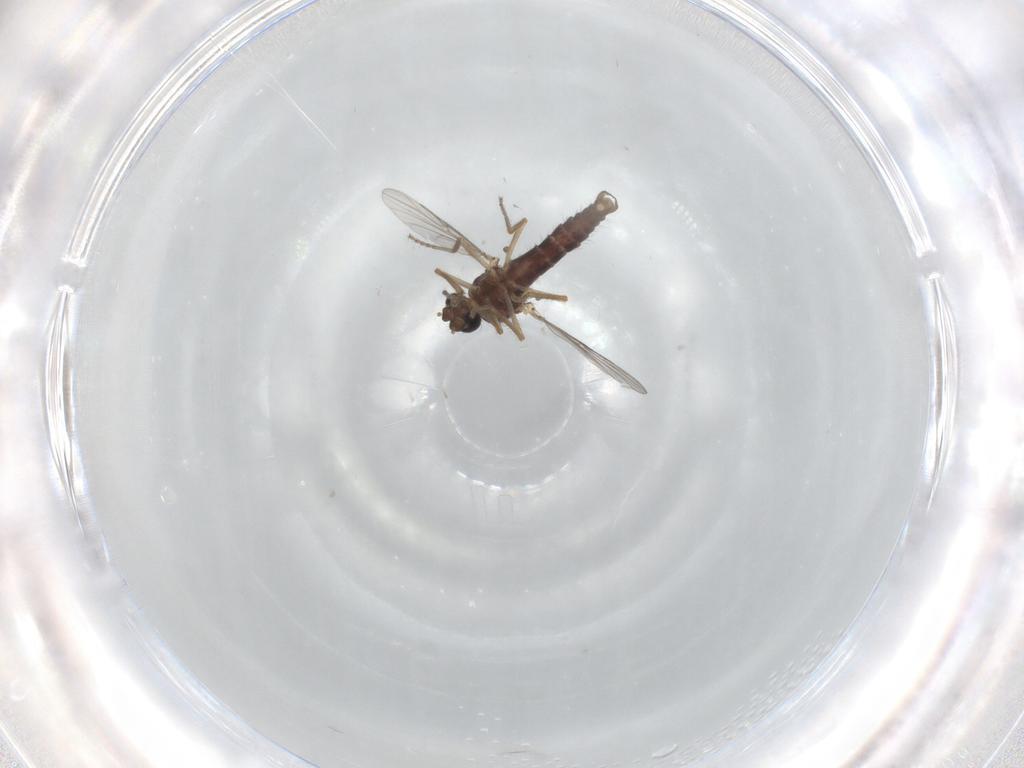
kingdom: Animalia
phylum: Arthropoda
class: Insecta
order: Diptera
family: Ceratopogonidae
